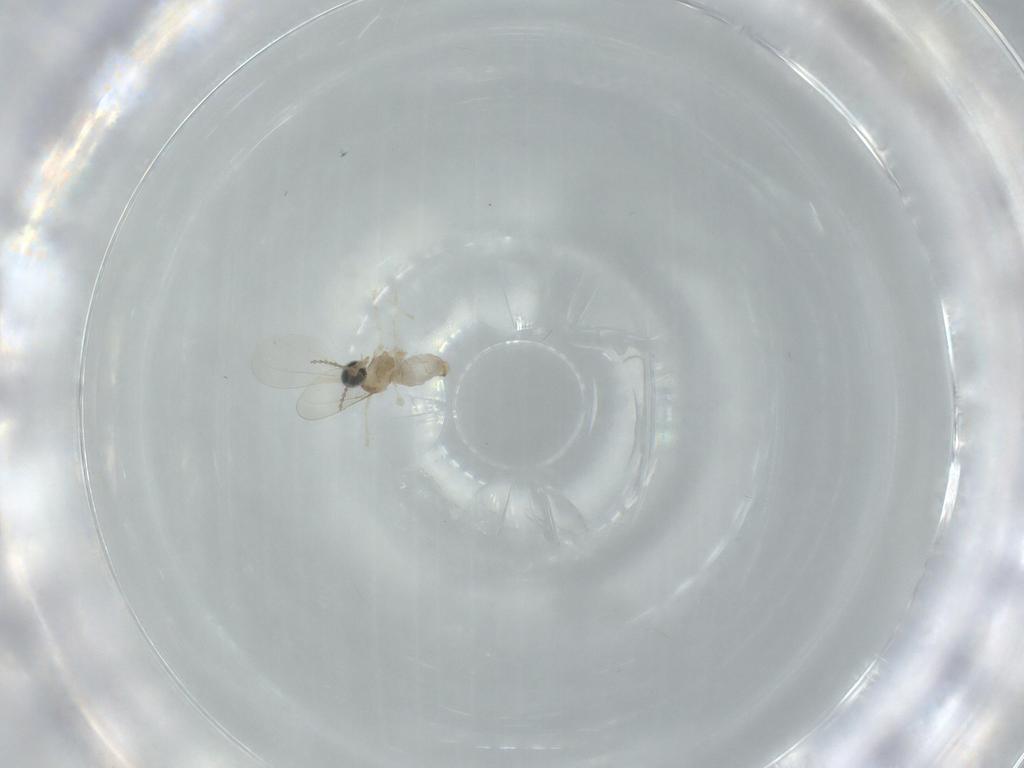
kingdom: Animalia
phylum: Arthropoda
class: Insecta
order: Diptera
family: Cecidomyiidae
